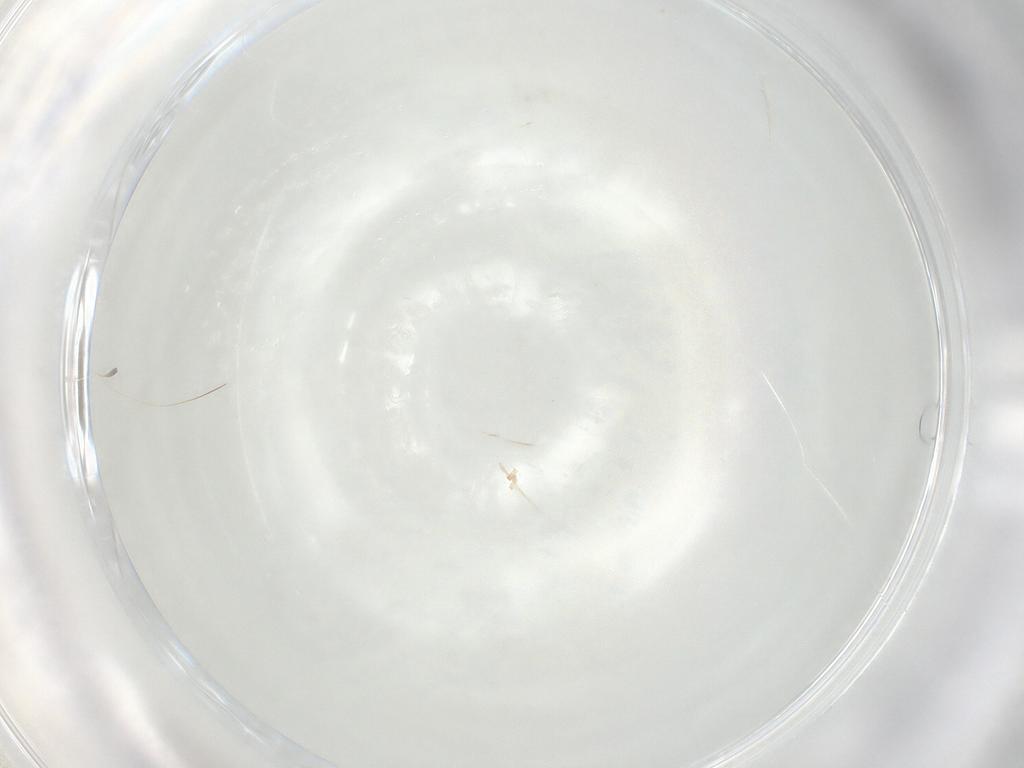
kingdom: Animalia
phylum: Arthropoda
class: Insecta
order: Hymenoptera
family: Mymaridae
